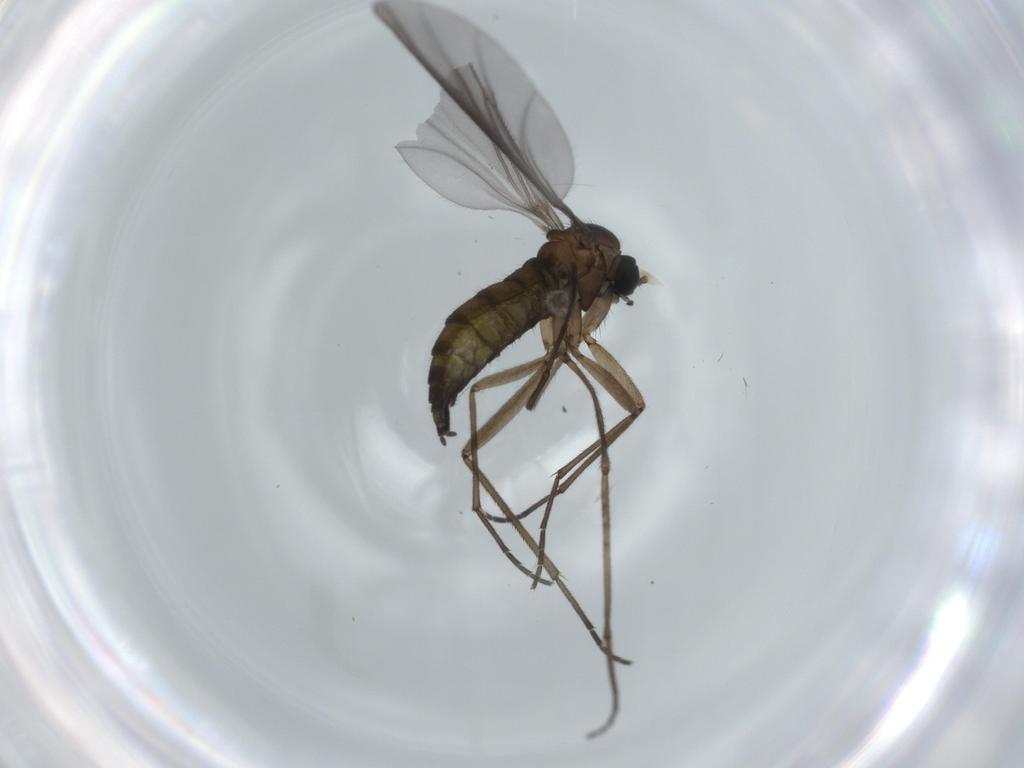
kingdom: Animalia
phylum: Arthropoda
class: Insecta
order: Diptera
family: Sciaridae
